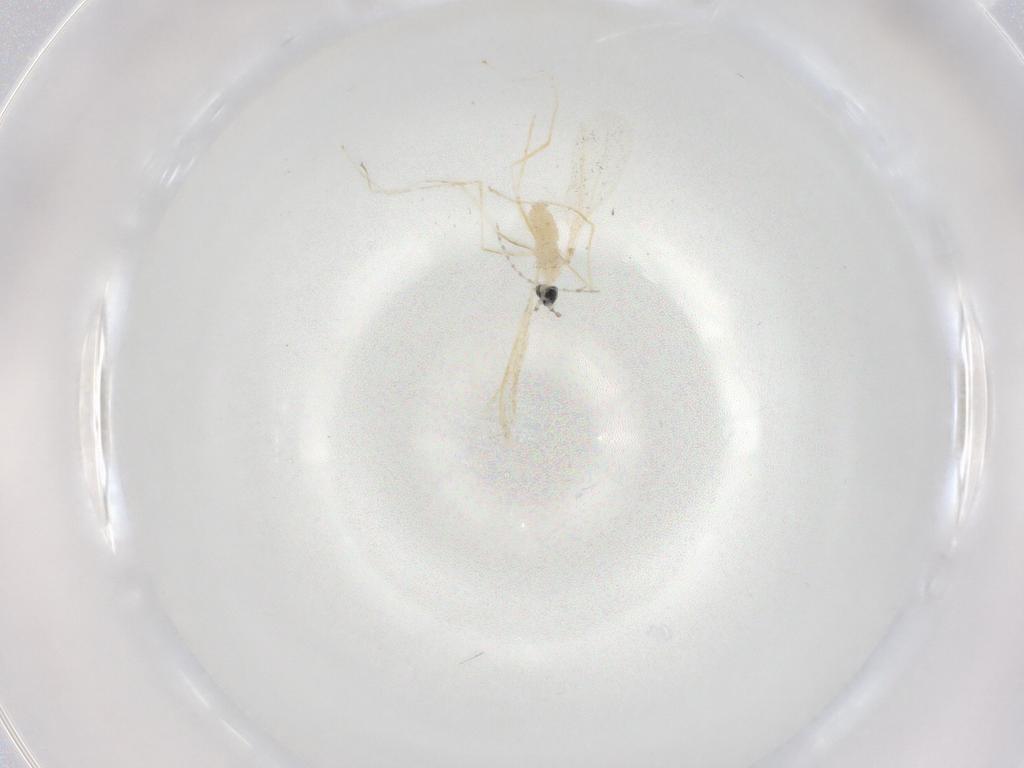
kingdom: Animalia
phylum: Arthropoda
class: Insecta
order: Diptera
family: Cecidomyiidae
